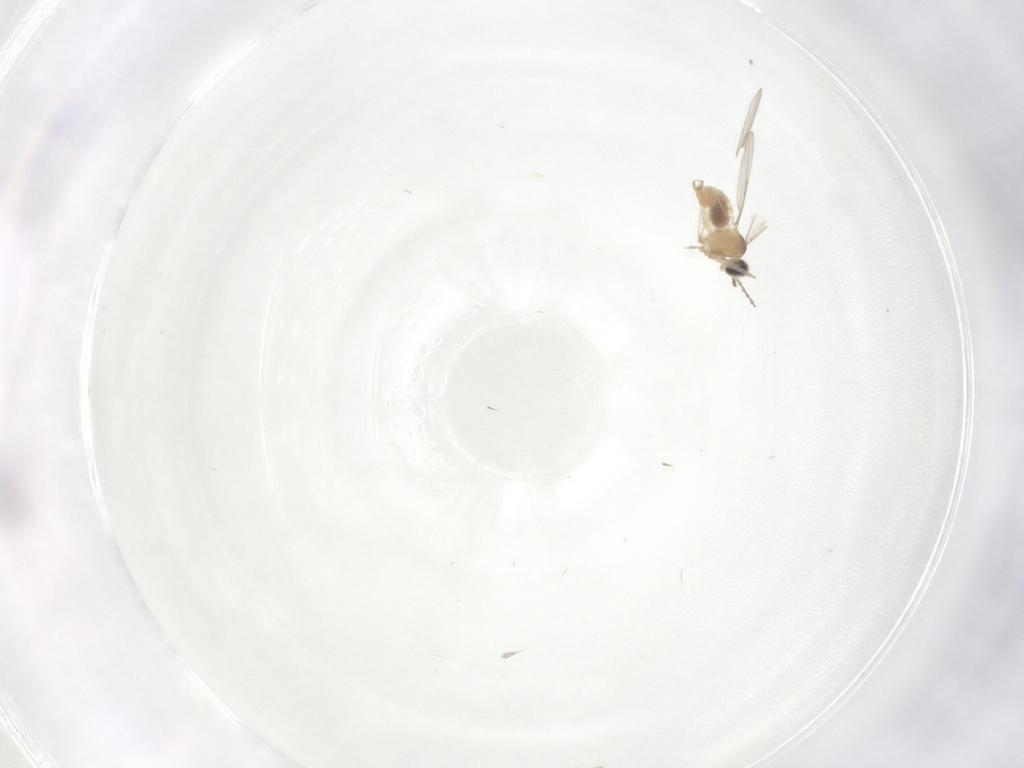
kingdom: Animalia
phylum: Arthropoda
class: Insecta
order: Diptera
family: Cecidomyiidae
